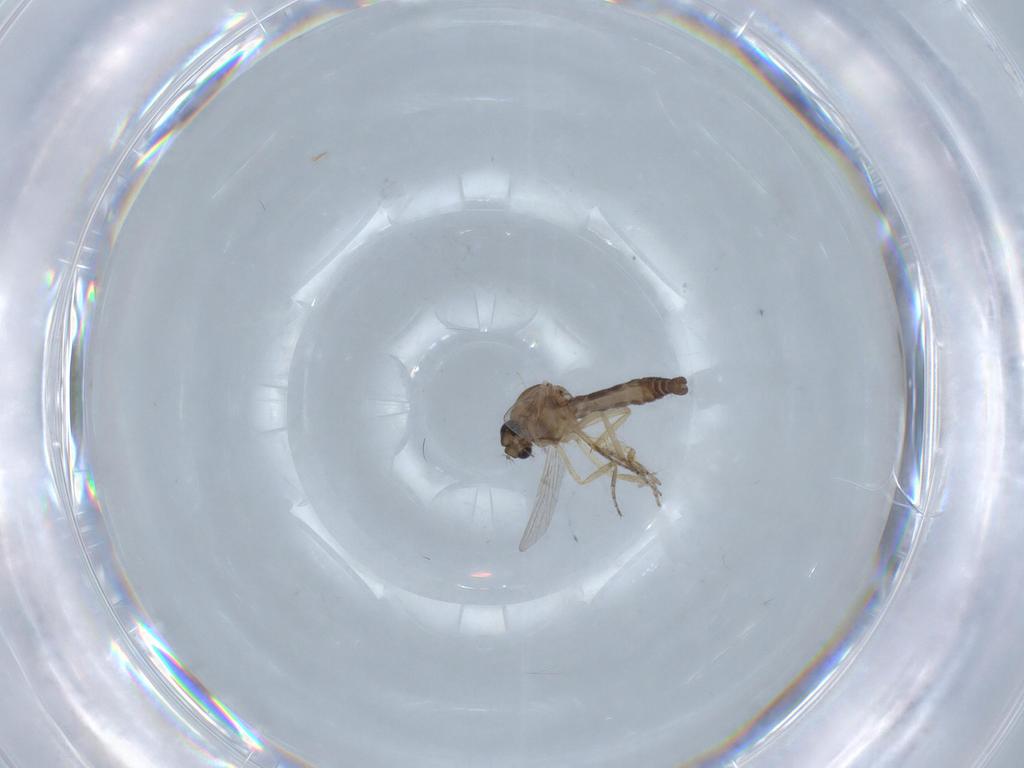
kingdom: Animalia
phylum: Arthropoda
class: Insecta
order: Diptera
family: Ceratopogonidae
